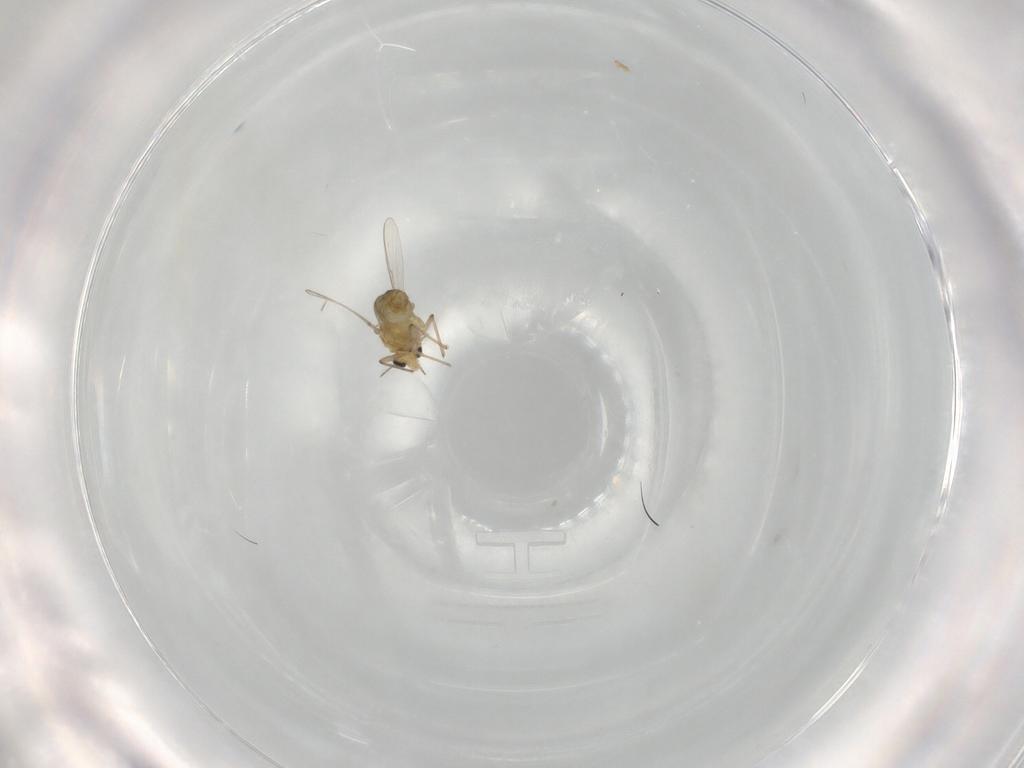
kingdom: Animalia
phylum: Arthropoda
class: Insecta
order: Diptera
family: Chironomidae
